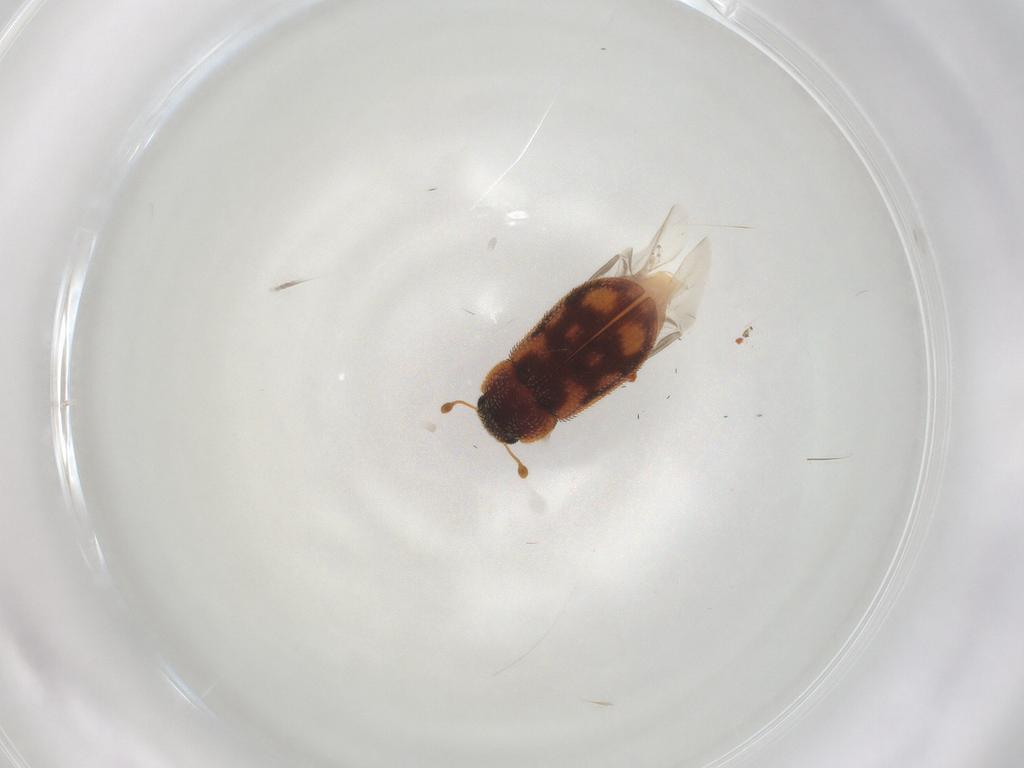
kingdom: Animalia
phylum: Arthropoda
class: Insecta
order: Coleoptera
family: Zopheridae
